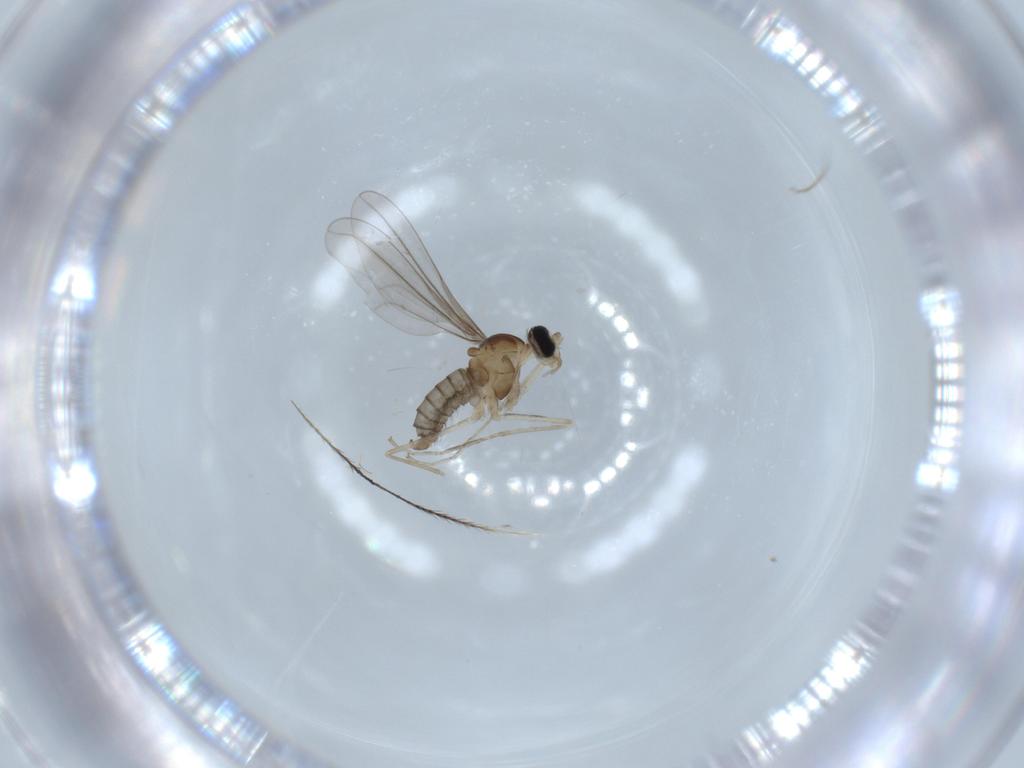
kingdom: Animalia
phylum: Arthropoda
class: Insecta
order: Diptera
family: Cecidomyiidae
